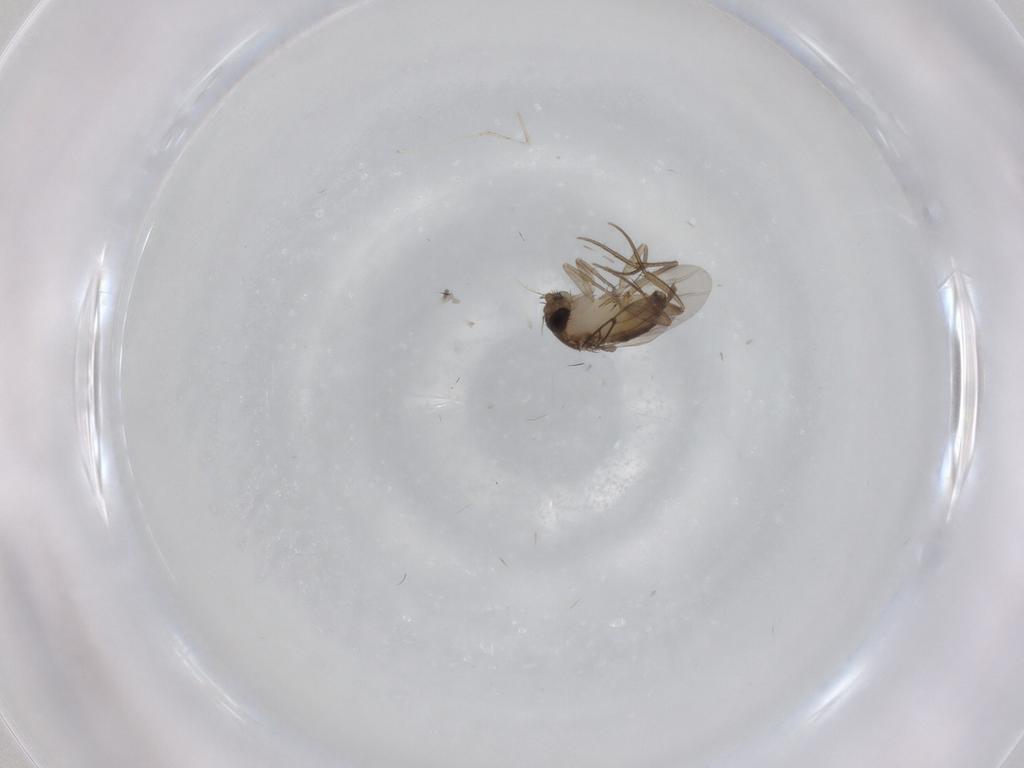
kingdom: Animalia
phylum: Arthropoda
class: Insecta
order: Diptera
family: Phoridae
